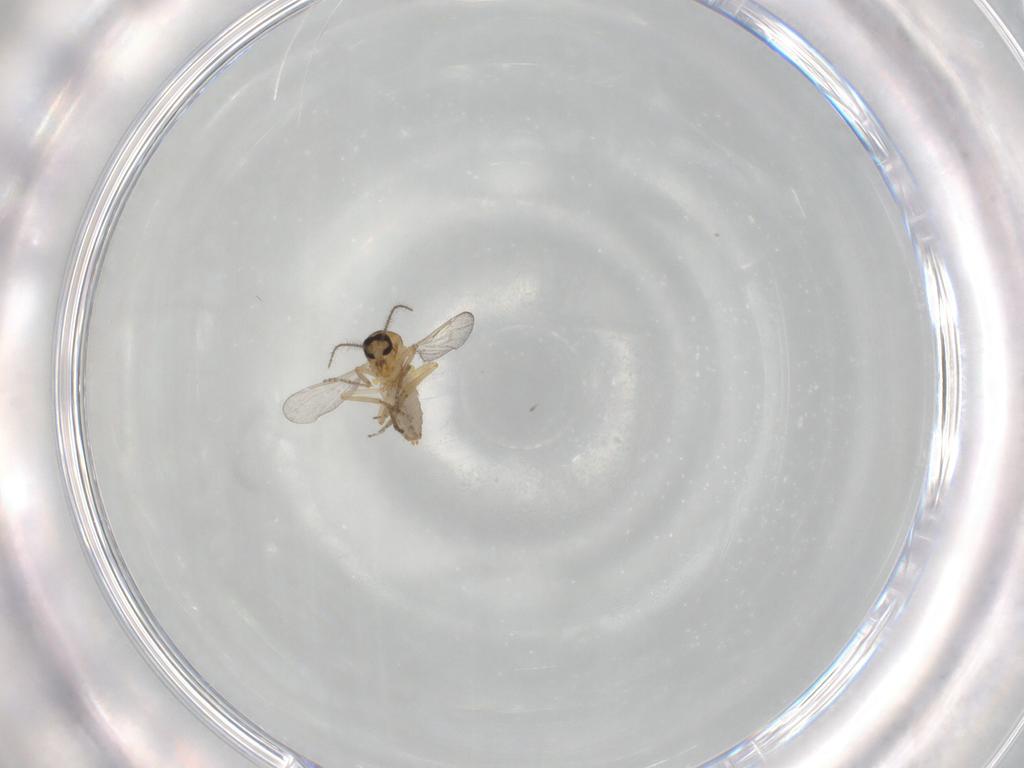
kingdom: Animalia
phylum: Arthropoda
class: Insecta
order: Diptera
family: Ceratopogonidae
